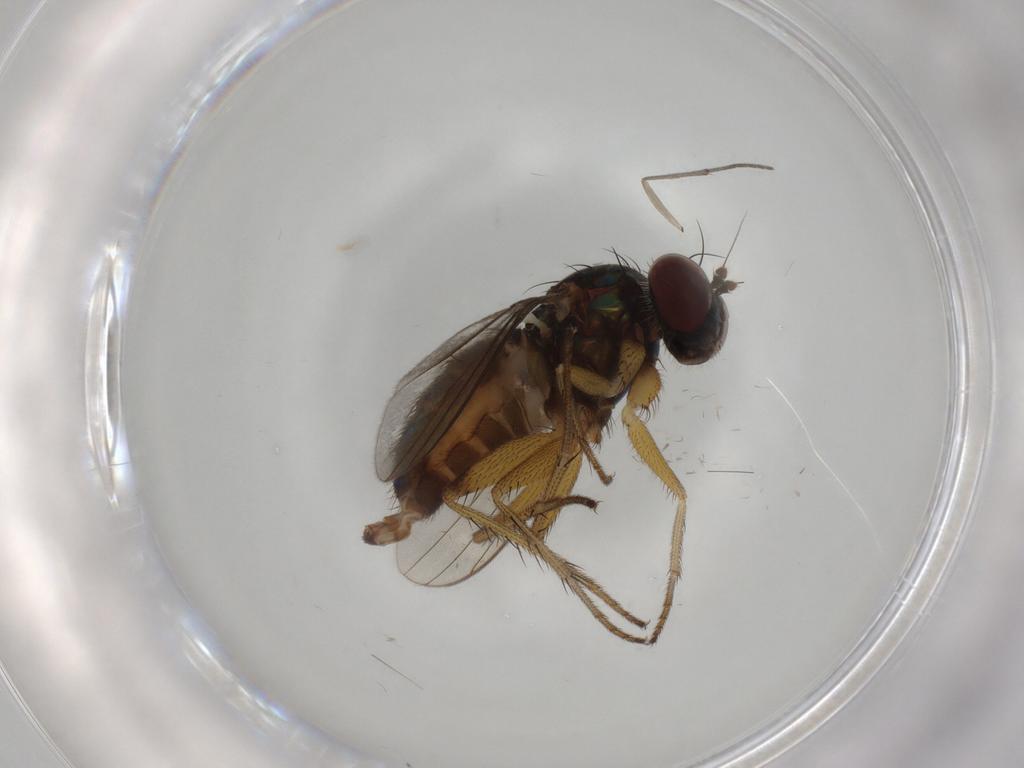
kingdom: Animalia
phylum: Arthropoda
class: Insecta
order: Diptera
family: Dolichopodidae
